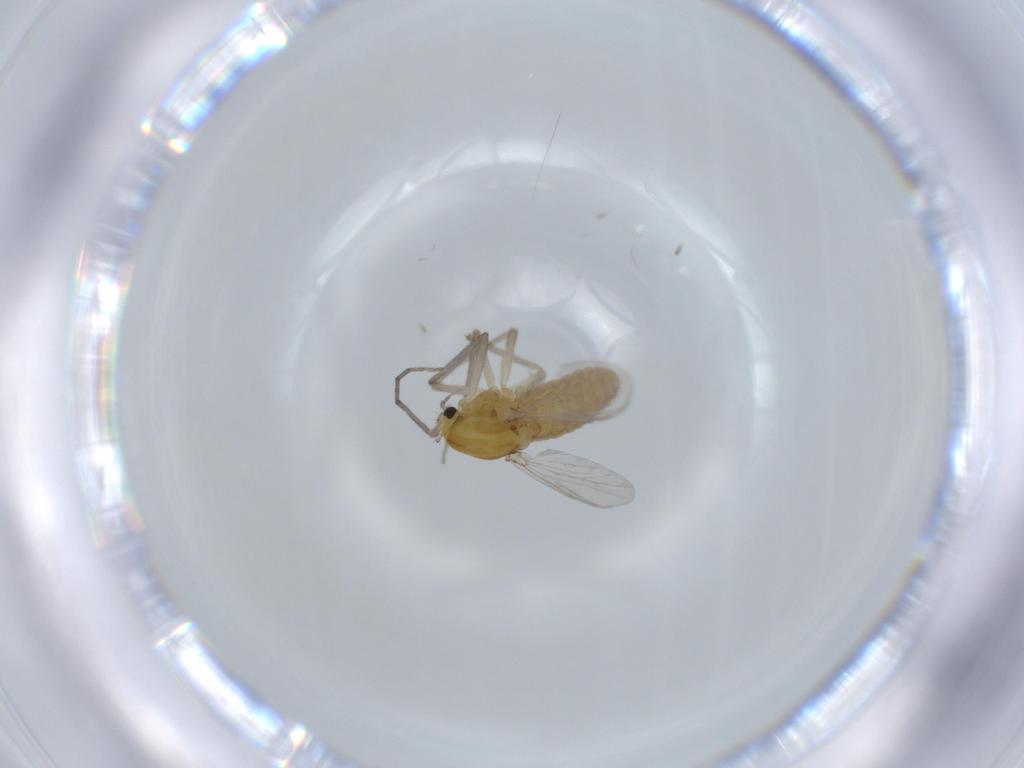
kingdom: Animalia
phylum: Arthropoda
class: Insecta
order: Diptera
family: Chironomidae
